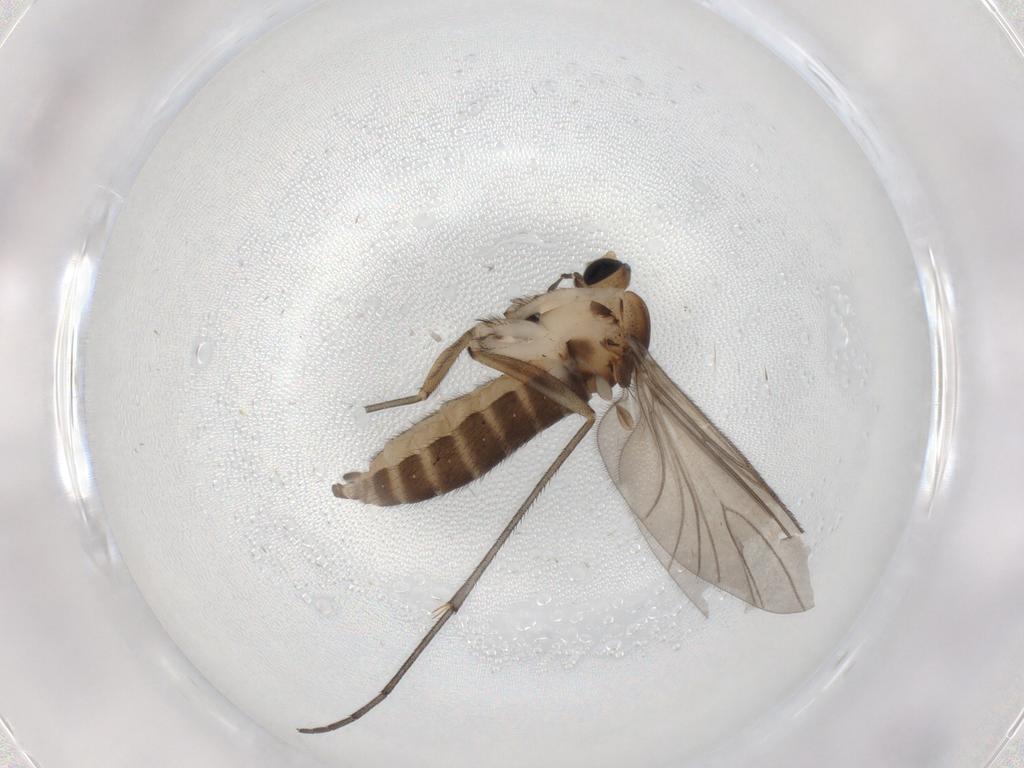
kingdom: Animalia
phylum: Arthropoda
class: Insecta
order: Diptera
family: Sciaridae
